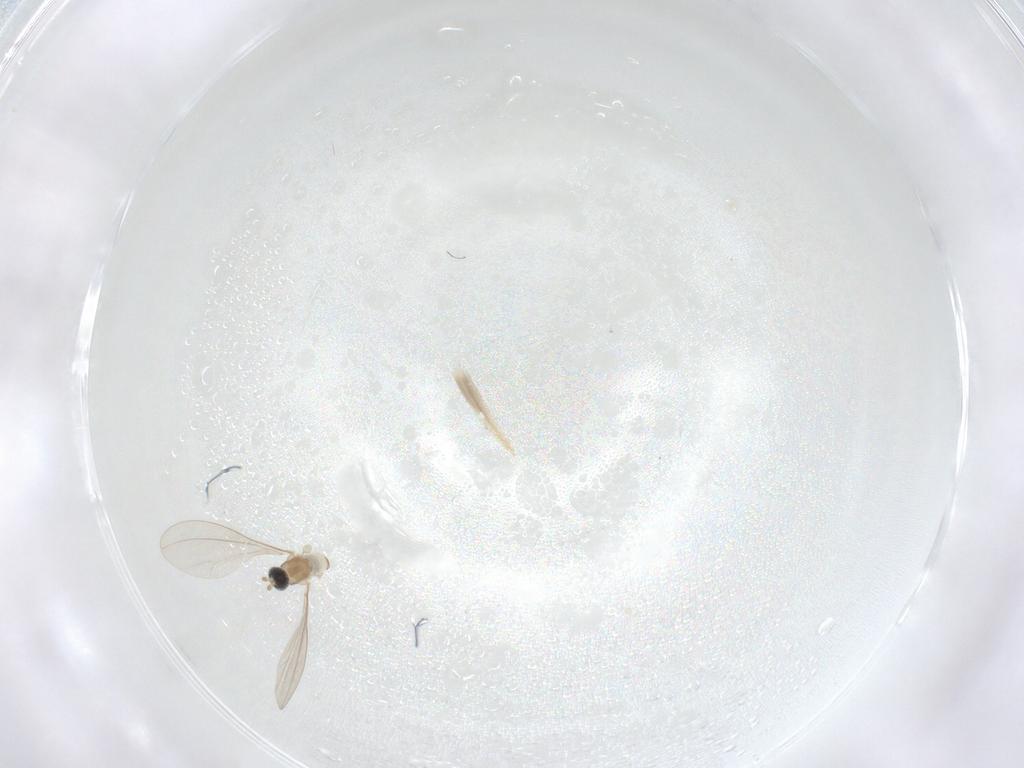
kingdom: Animalia
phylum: Arthropoda
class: Insecta
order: Diptera
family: Cecidomyiidae
